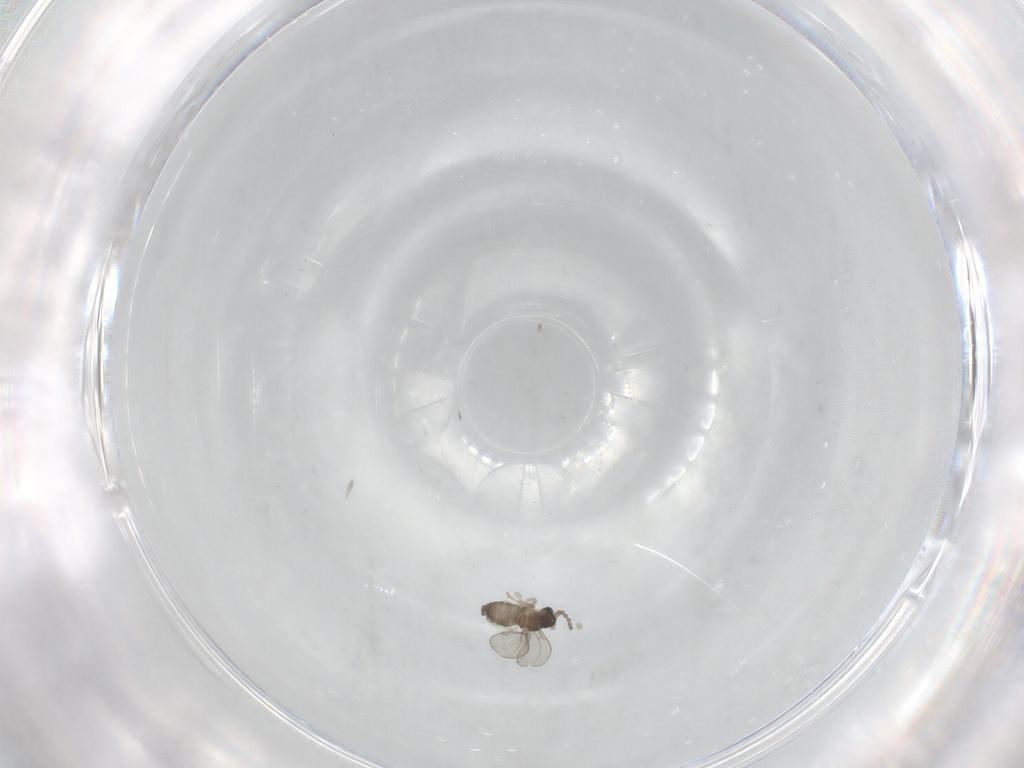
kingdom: Animalia
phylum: Arthropoda
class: Insecta
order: Diptera
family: Cecidomyiidae
